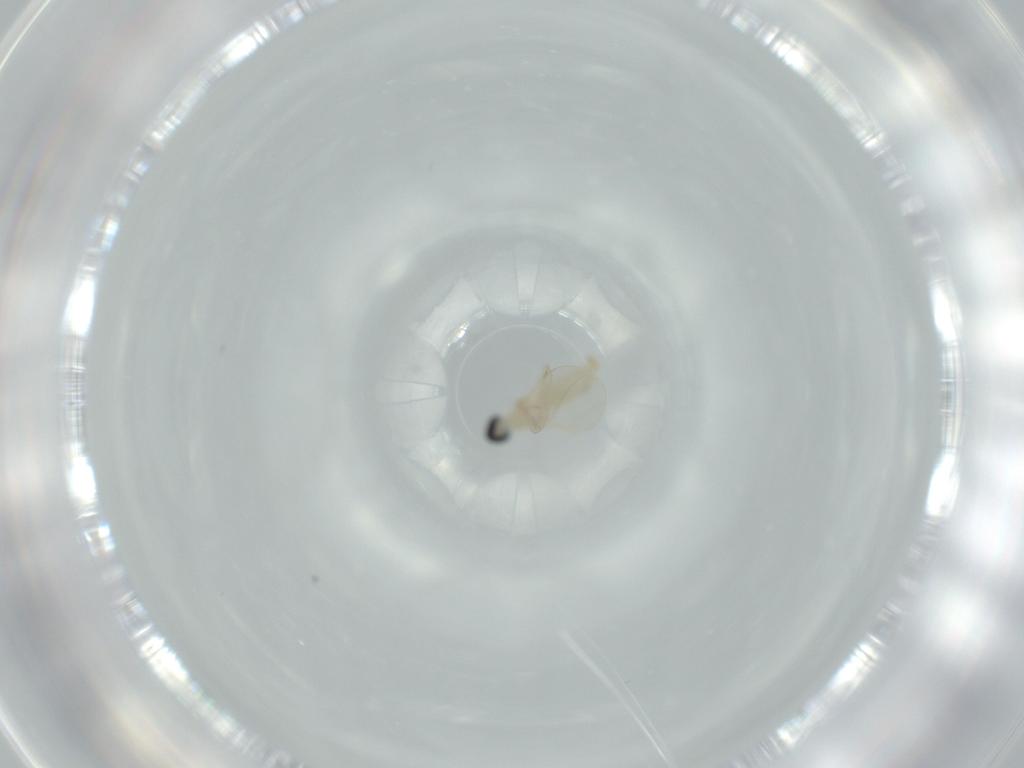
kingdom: Animalia
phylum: Arthropoda
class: Insecta
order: Diptera
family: Cecidomyiidae
